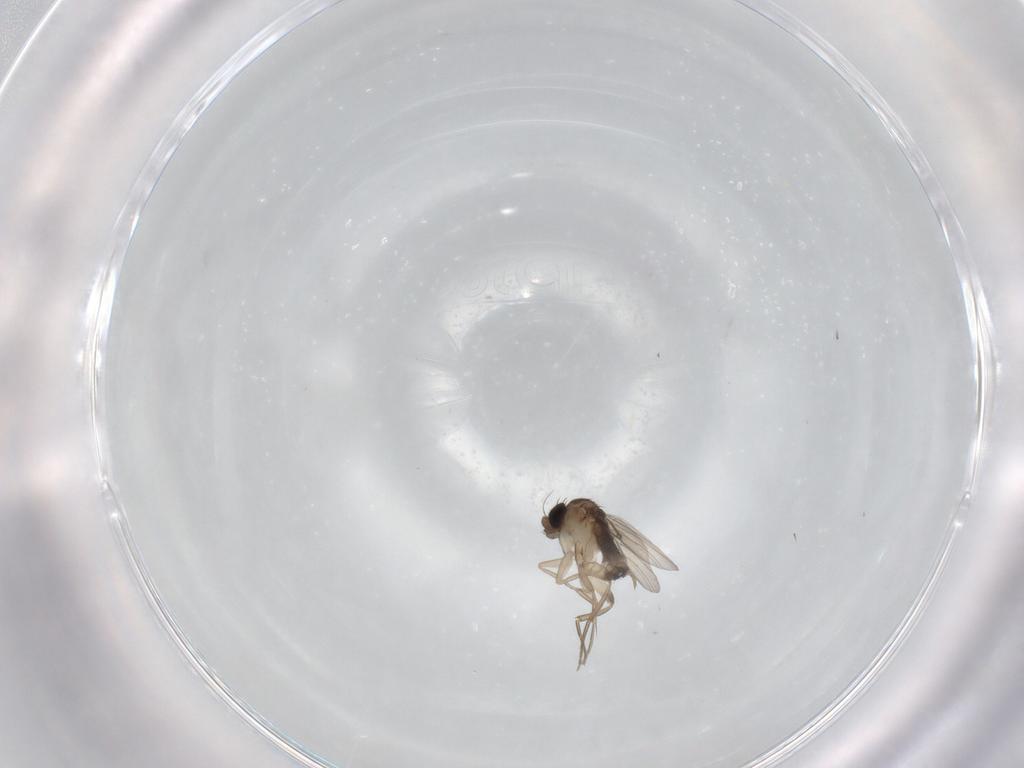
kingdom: Animalia
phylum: Arthropoda
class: Insecta
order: Diptera
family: Phoridae
